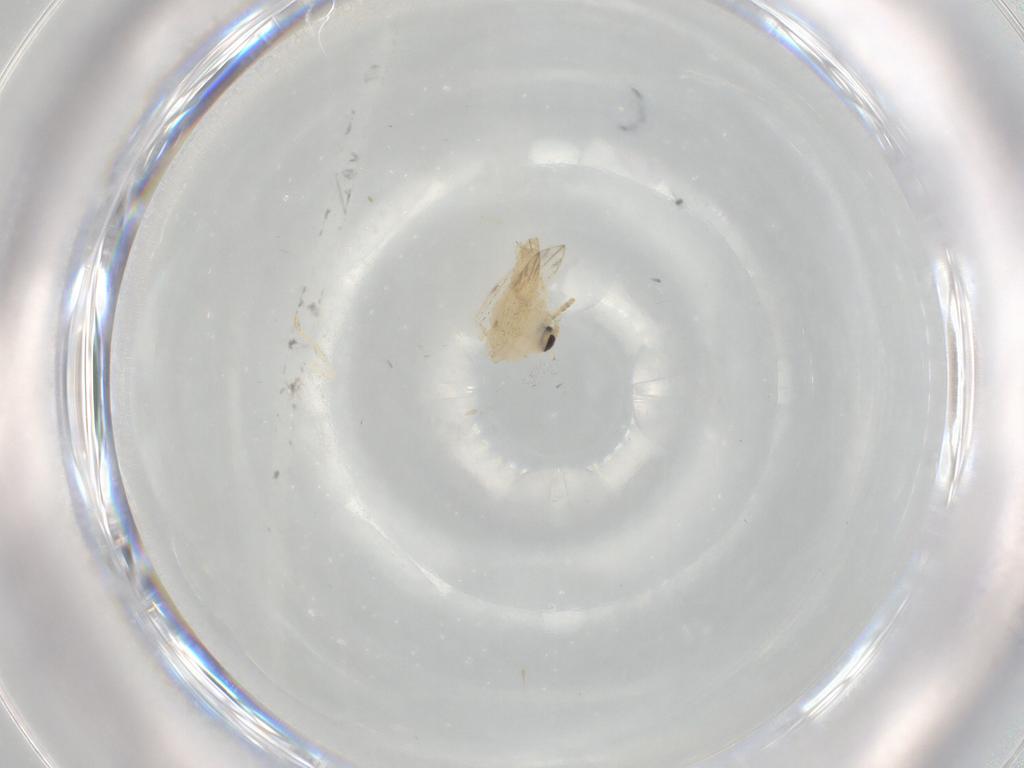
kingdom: Animalia
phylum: Arthropoda
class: Insecta
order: Diptera
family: Psychodidae
